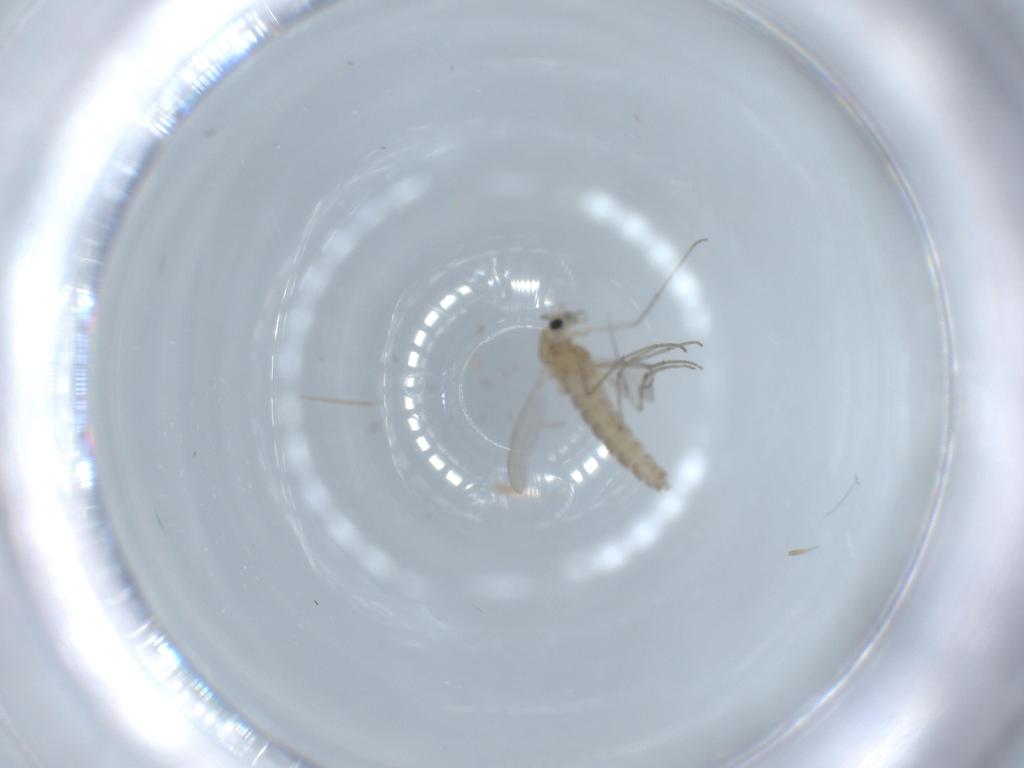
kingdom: Animalia
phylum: Arthropoda
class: Insecta
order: Diptera
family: Chironomidae
